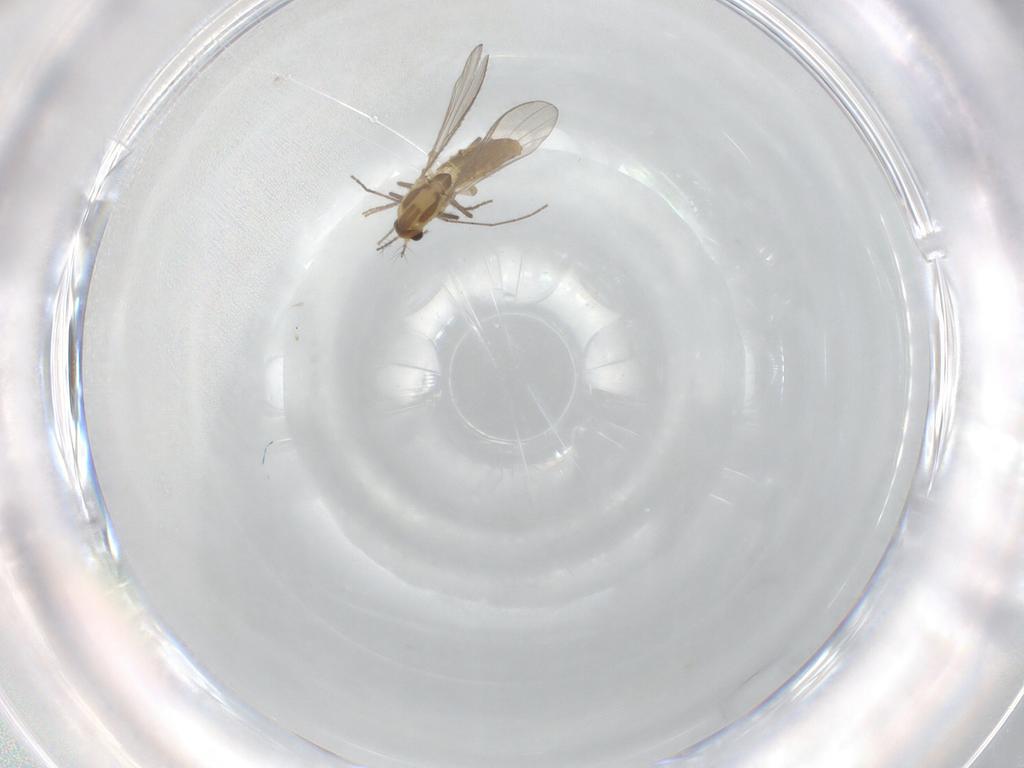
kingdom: Animalia
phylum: Arthropoda
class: Insecta
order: Diptera
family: Chironomidae
